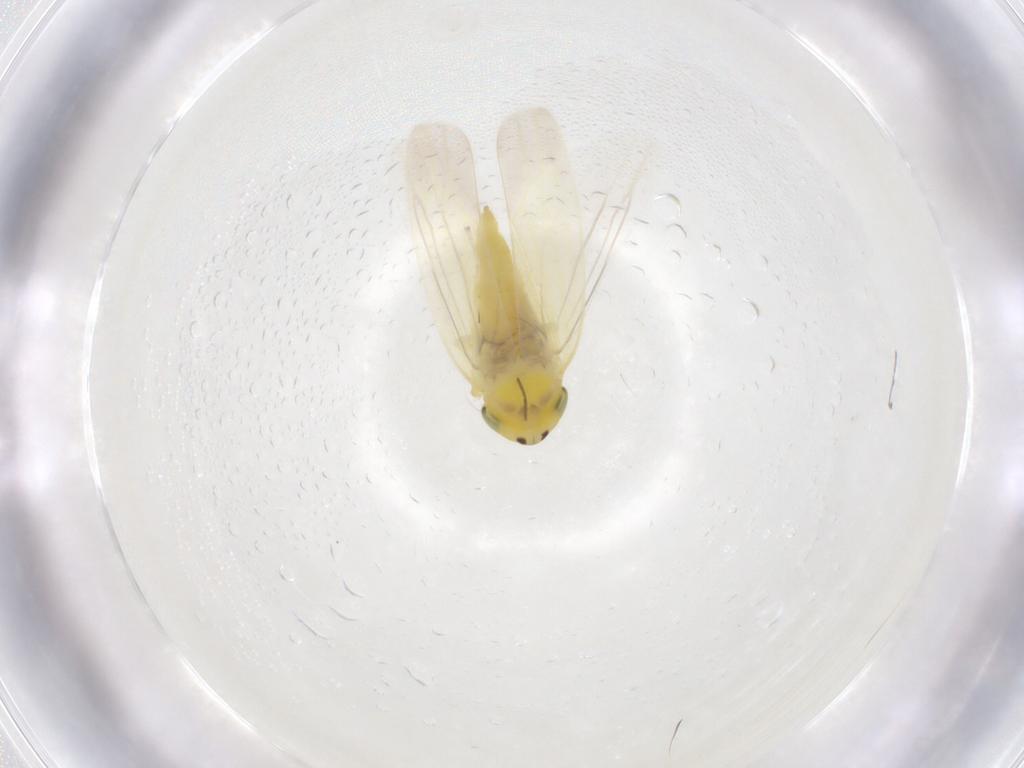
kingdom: Animalia
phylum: Arthropoda
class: Insecta
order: Hemiptera
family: Cicadellidae
